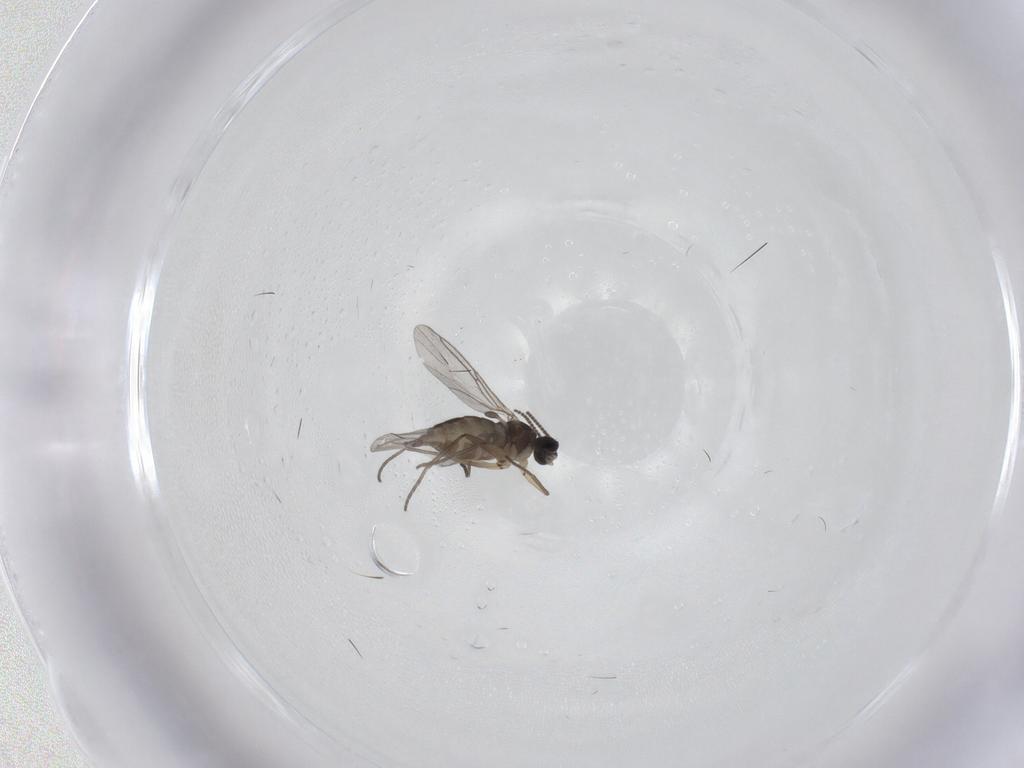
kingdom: Animalia
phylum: Arthropoda
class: Insecta
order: Diptera
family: Sciaridae
